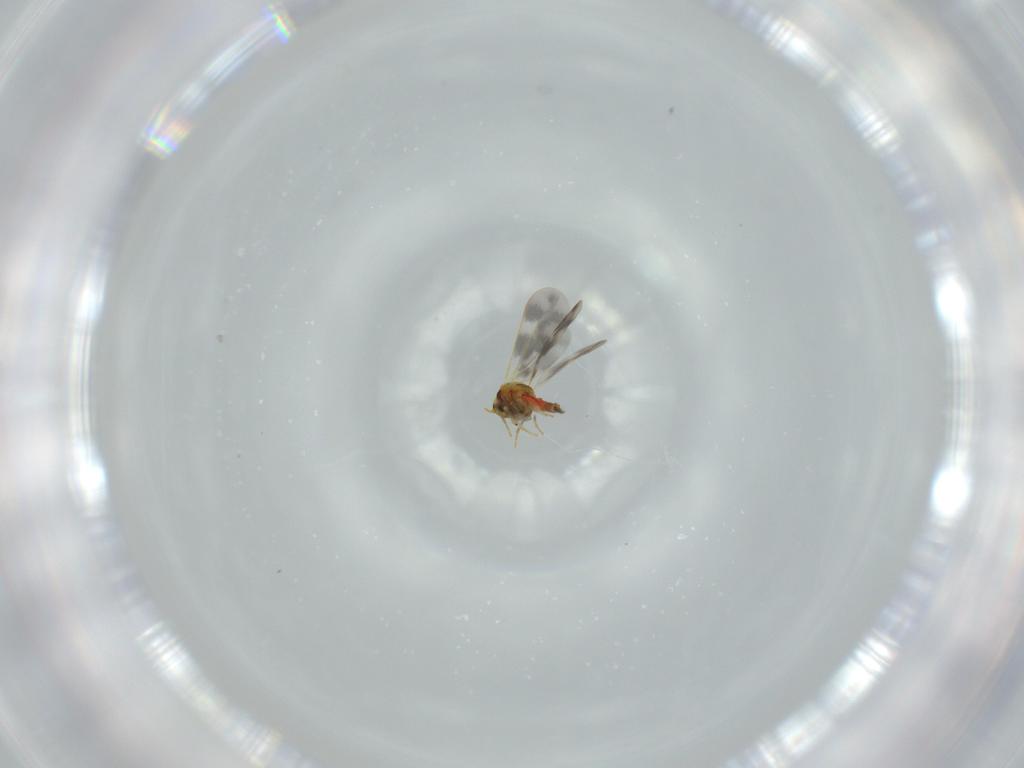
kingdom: Animalia
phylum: Arthropoda
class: Insecta
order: Hemiptera
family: Aleyrodidae
